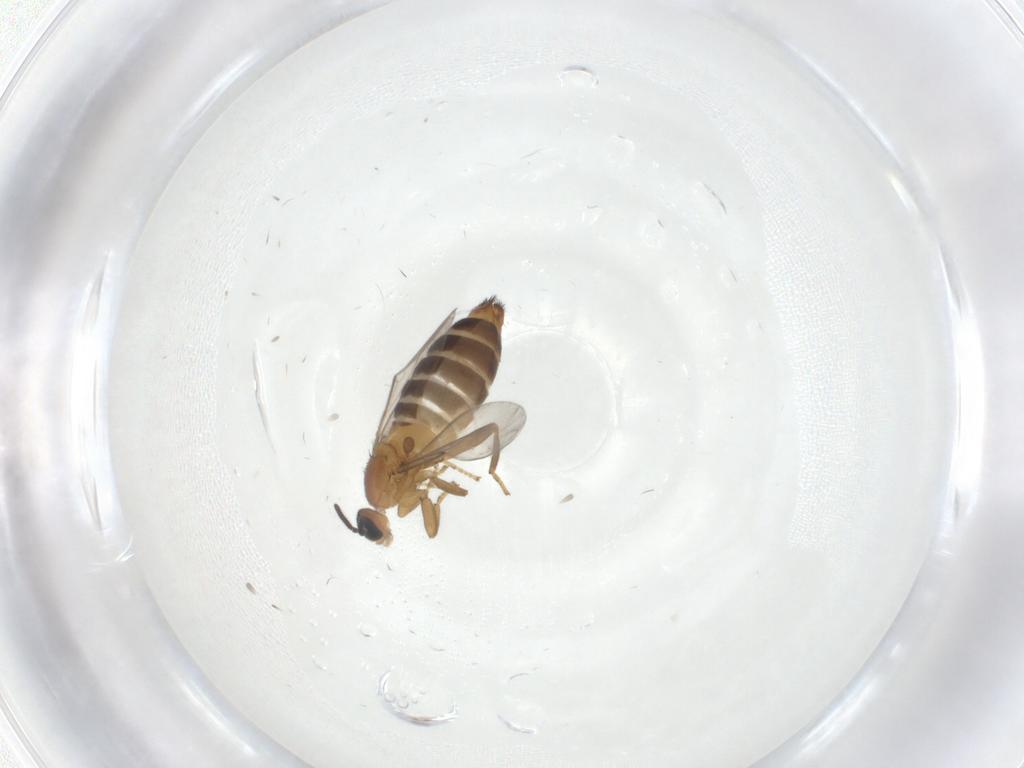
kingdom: Animalia
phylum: Arthropoda
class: Insecta
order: Diptera
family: Scatopsidae
